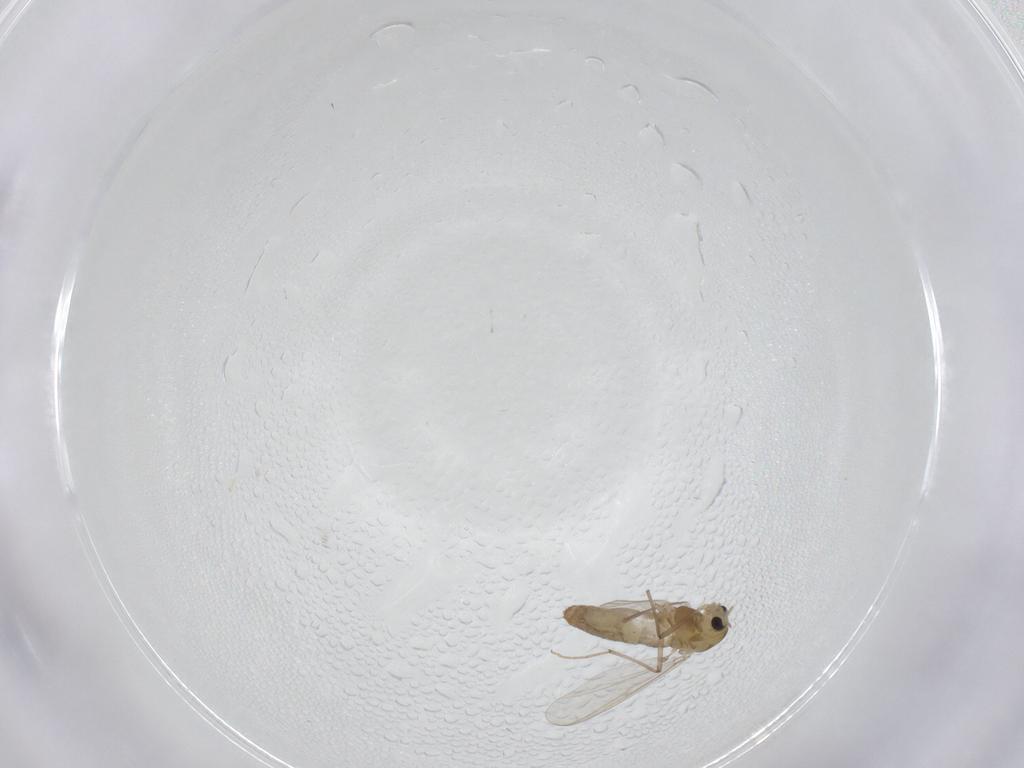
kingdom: Animalia
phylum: Arthropoda
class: Insecta
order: Diptera
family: Chironomidae
